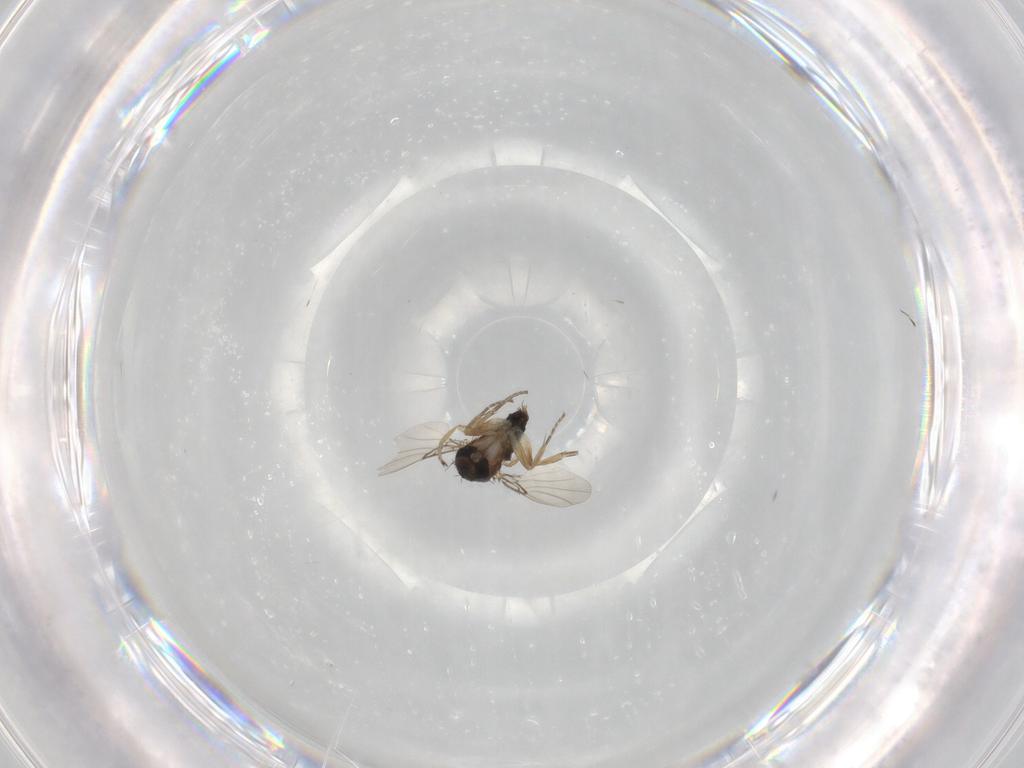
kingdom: Animalia
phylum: Arthropoda
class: Insecta
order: Diptera
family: Phoridae
